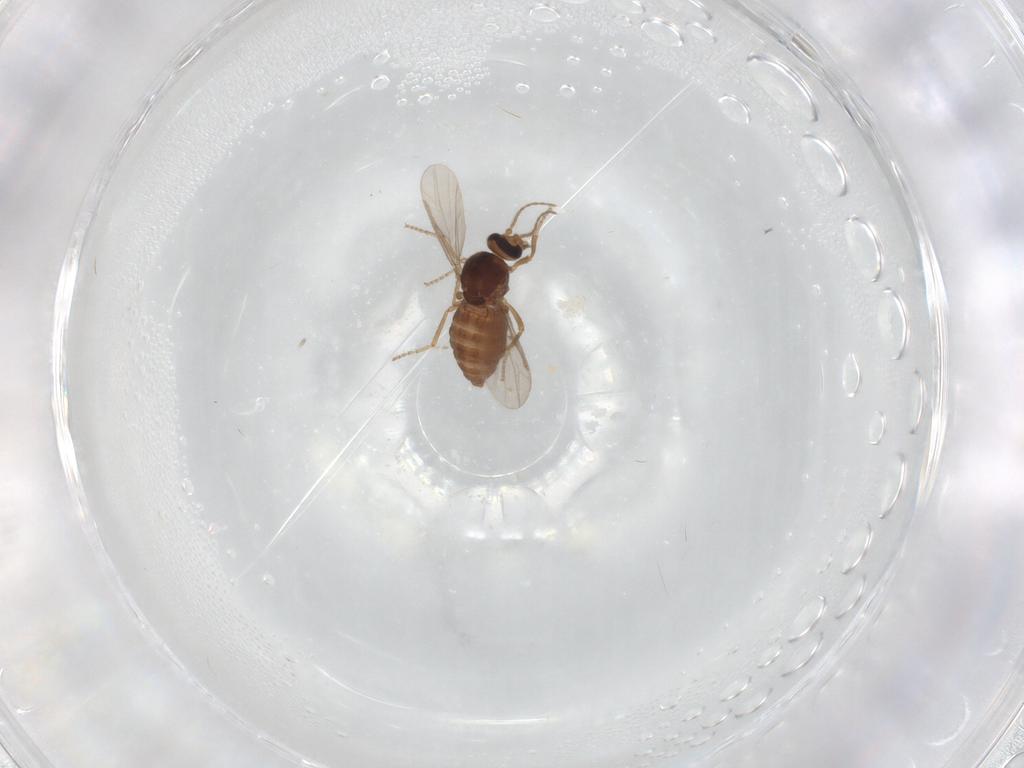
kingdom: Animalia
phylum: Arthropoda
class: Insecta
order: Diptera
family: Ceratopogonidae
